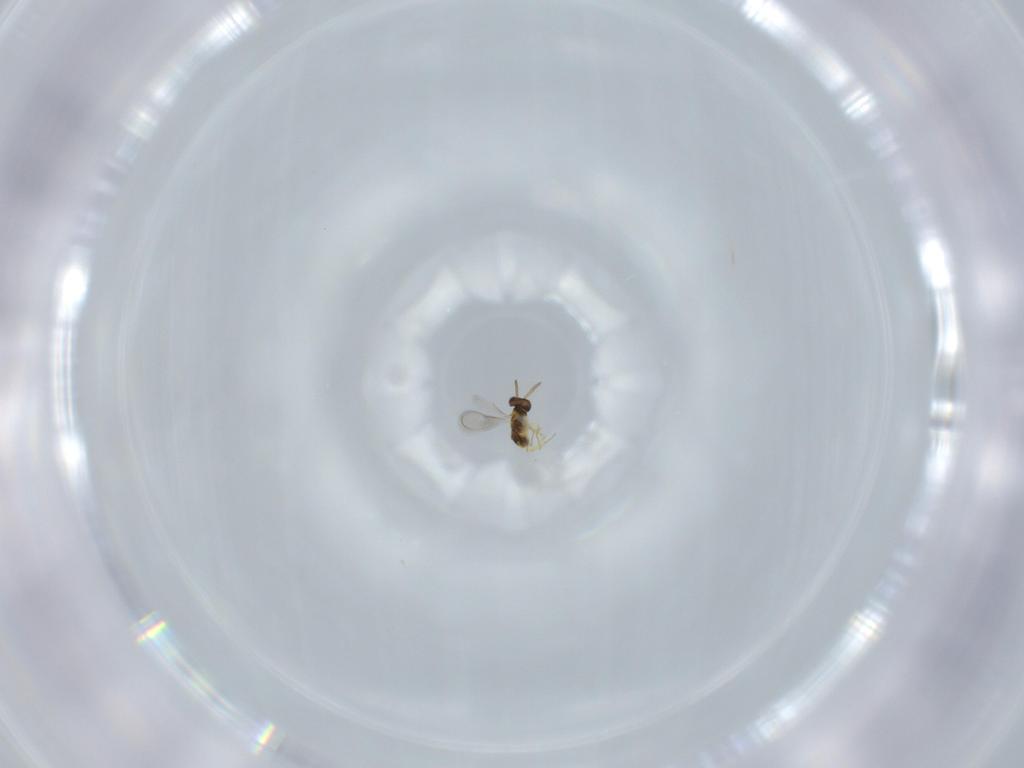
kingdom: Animalia
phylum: Arthropoda
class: Insecta
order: Hymenoptera
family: Aphelinidae
